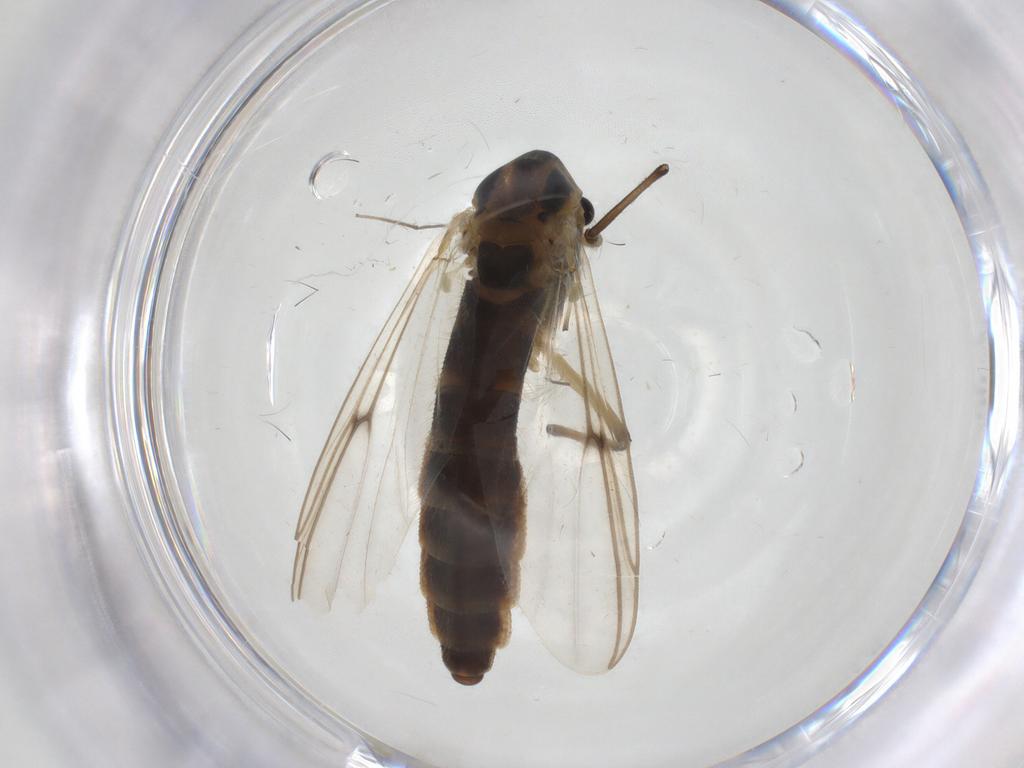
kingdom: Animalia
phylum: Arthropoda
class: Insecta
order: Diptera
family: Chironomidae
